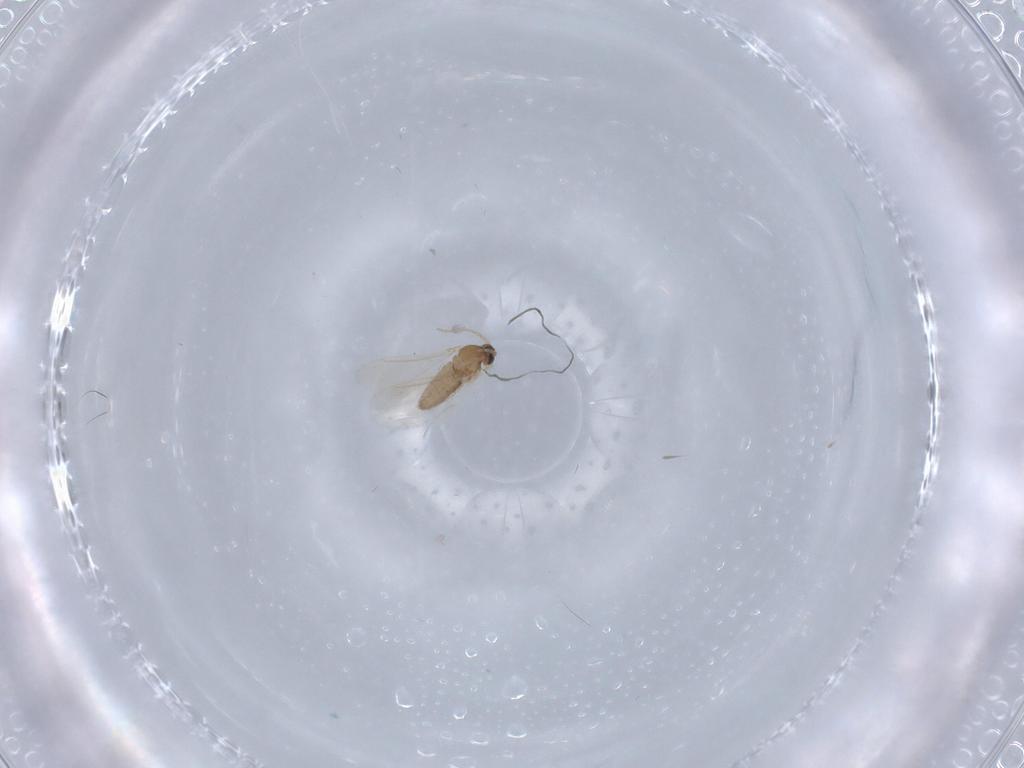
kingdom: Animalia
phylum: Arthropoda
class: Insecta
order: Diptera
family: Cecidomyiidae
